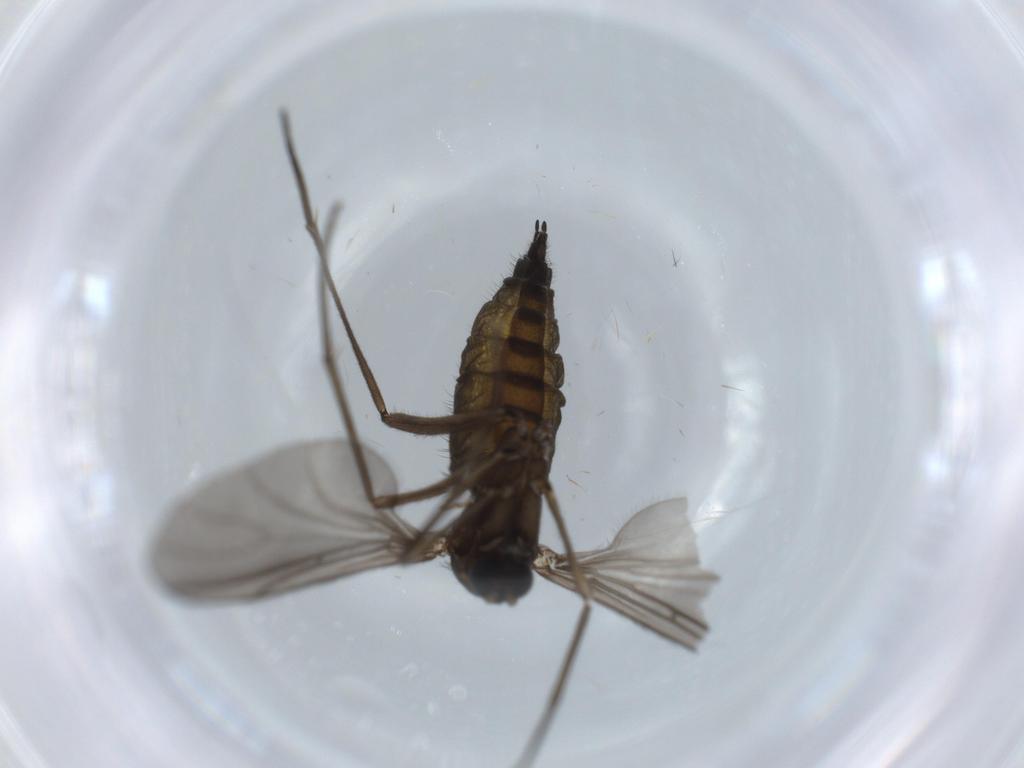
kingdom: Animalia
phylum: Arthropoda
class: Insecta
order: Diptera
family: Sciaridae
